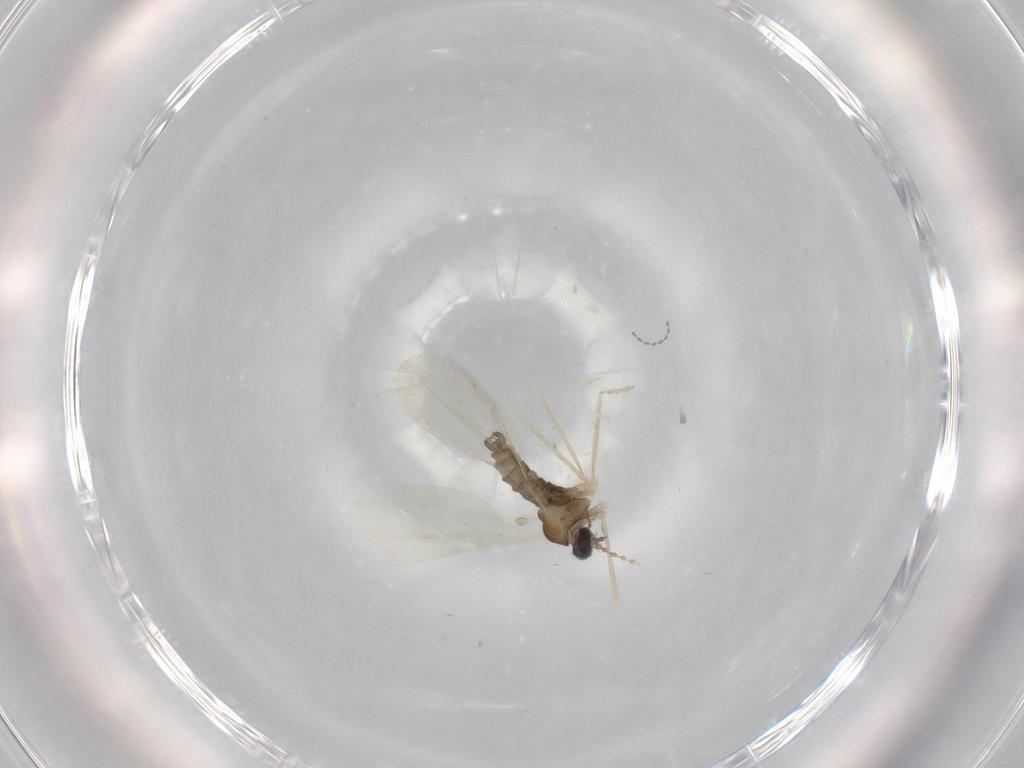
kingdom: Animalia
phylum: Arthropoda
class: Insecta
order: Diptera
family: Cecidomyiidae
